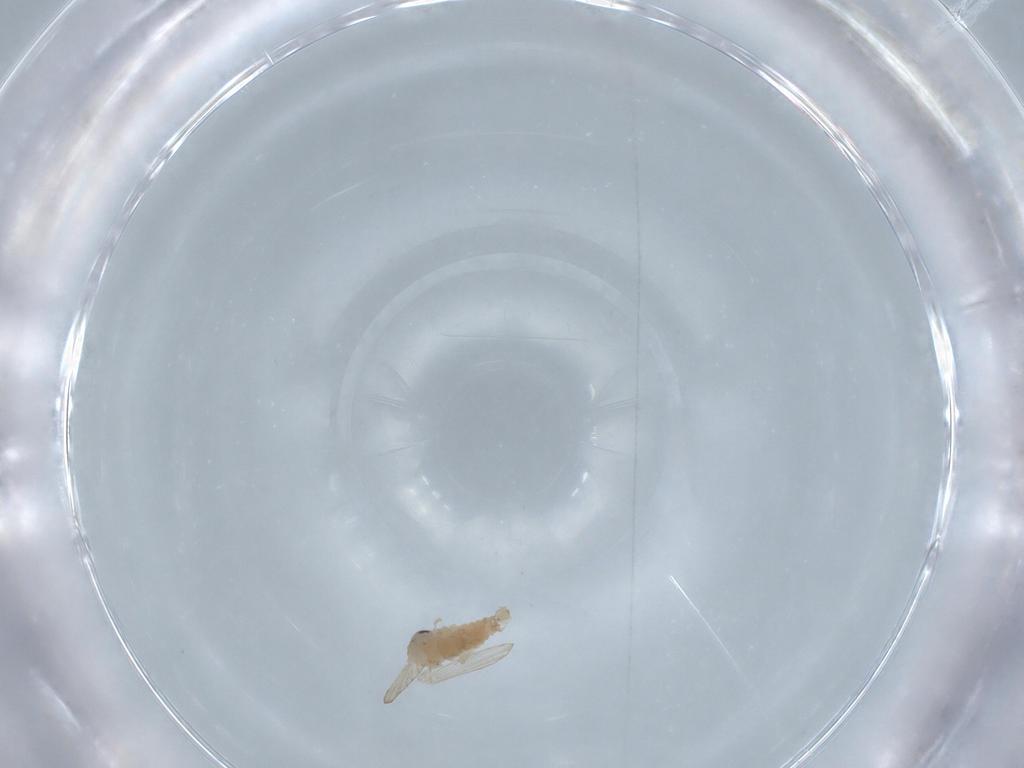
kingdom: Animalia
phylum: Arthropoda
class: Insecta
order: Diptera
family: Psychodidae
